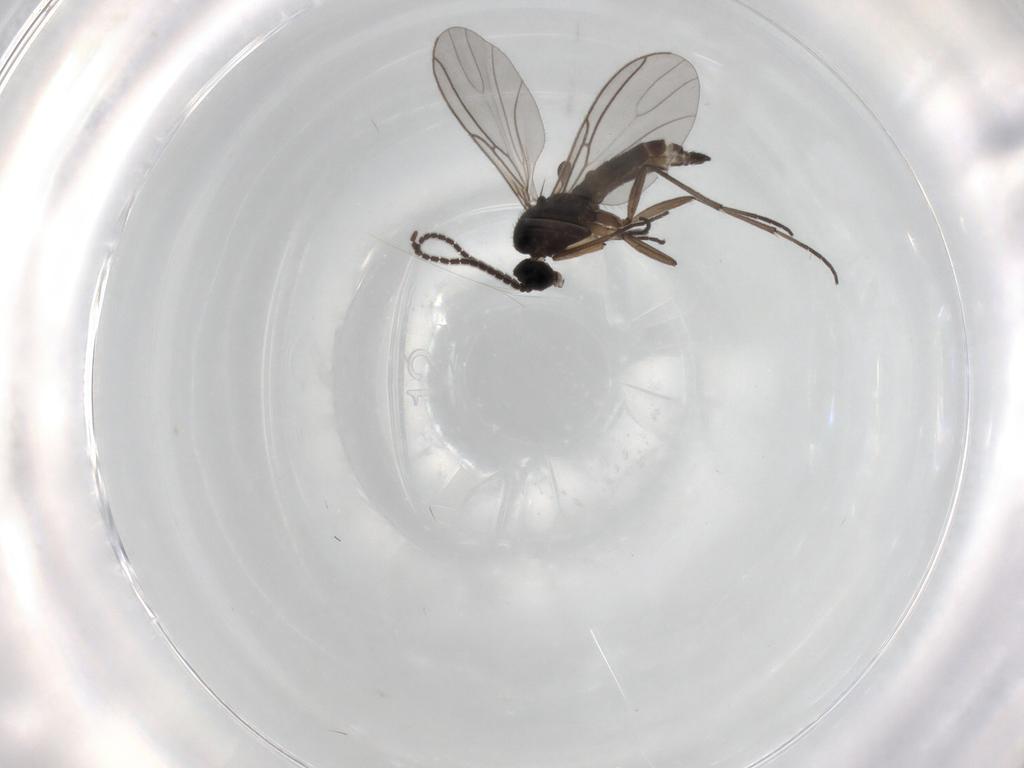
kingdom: Animalia
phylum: Arthropoda
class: Insecta
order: Diptera
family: Sciaridae
